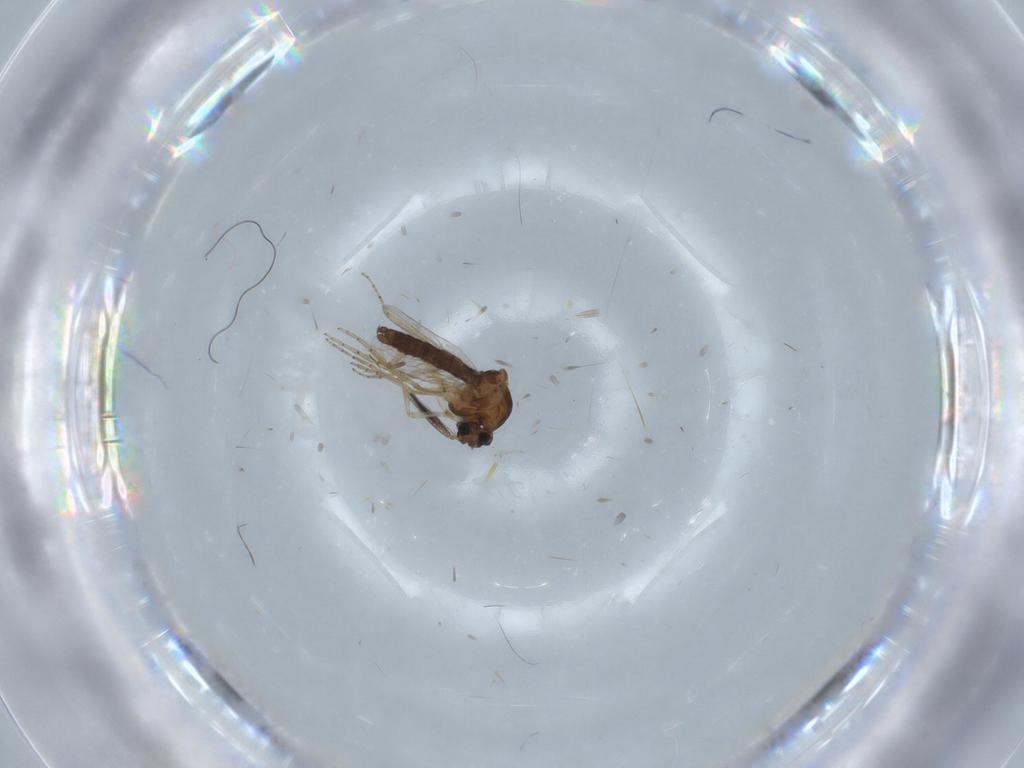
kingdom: Animalia
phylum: Arthropoda
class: Insecta
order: Diptera
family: Ceratopogonidae
